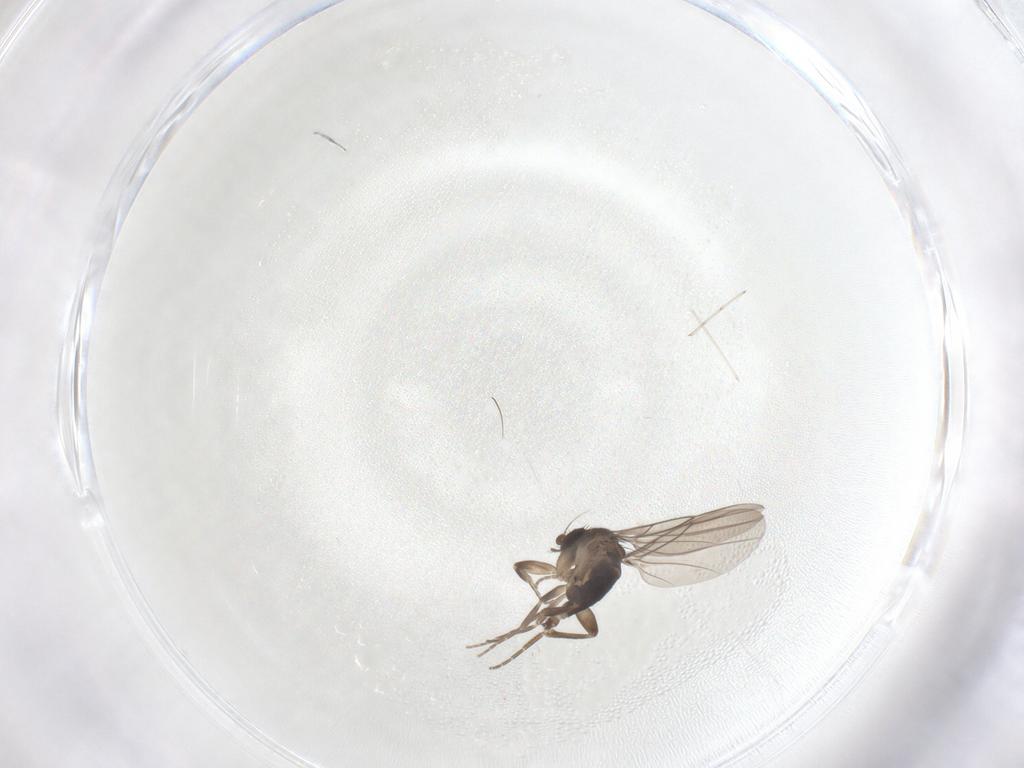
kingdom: Animalia
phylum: Arthropoda
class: Insecta
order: Diptera
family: Phoridae
